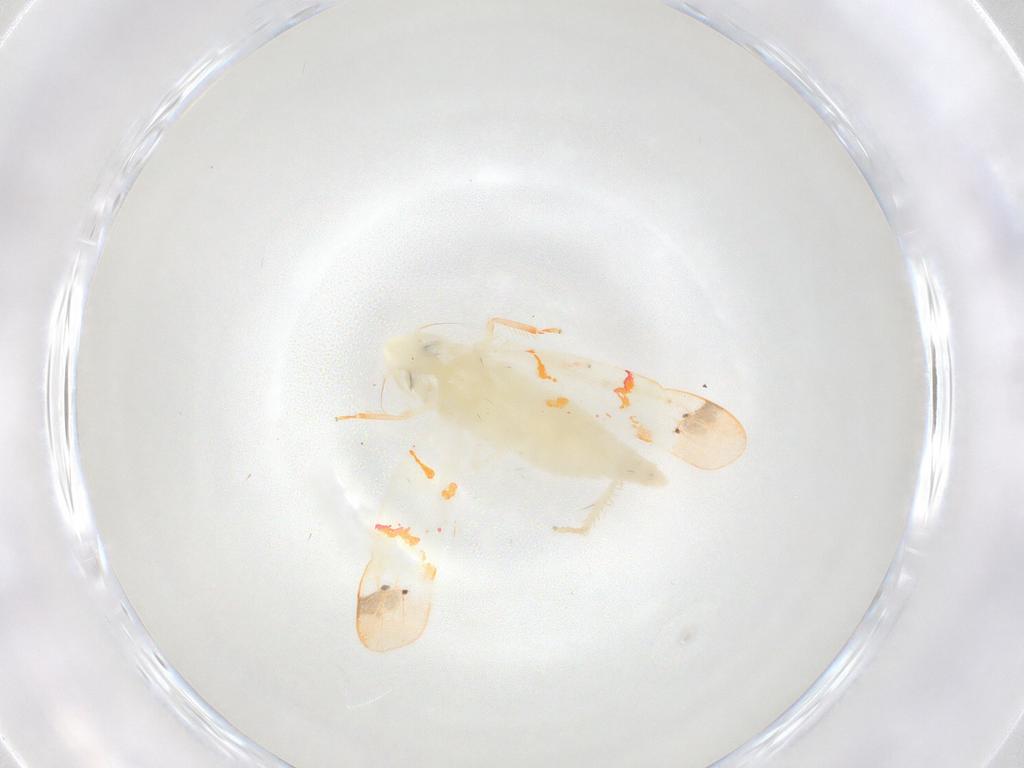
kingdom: Animalia
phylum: Arthropoda
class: Insecta
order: Hemiptera
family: Cicadellidae
